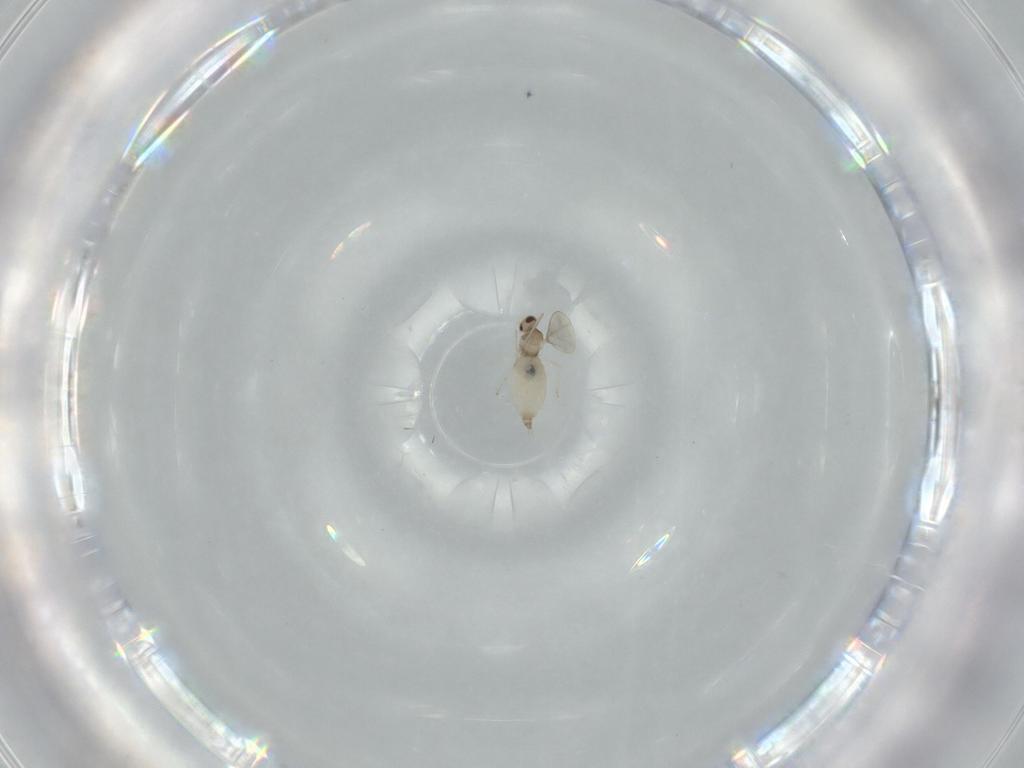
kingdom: Animalia
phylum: Arthropoda
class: Insecta
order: Diptera
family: Cecidomyiidae
